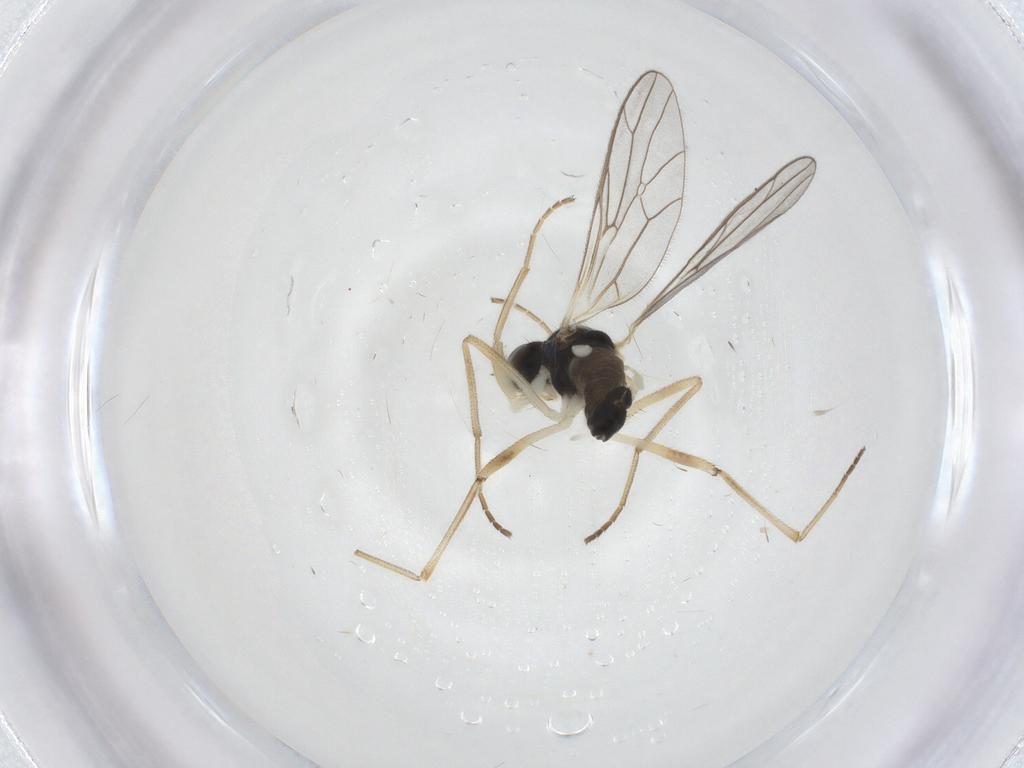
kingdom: Animalia
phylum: Arthropoda
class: Insecta
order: Diptera
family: Empididae
